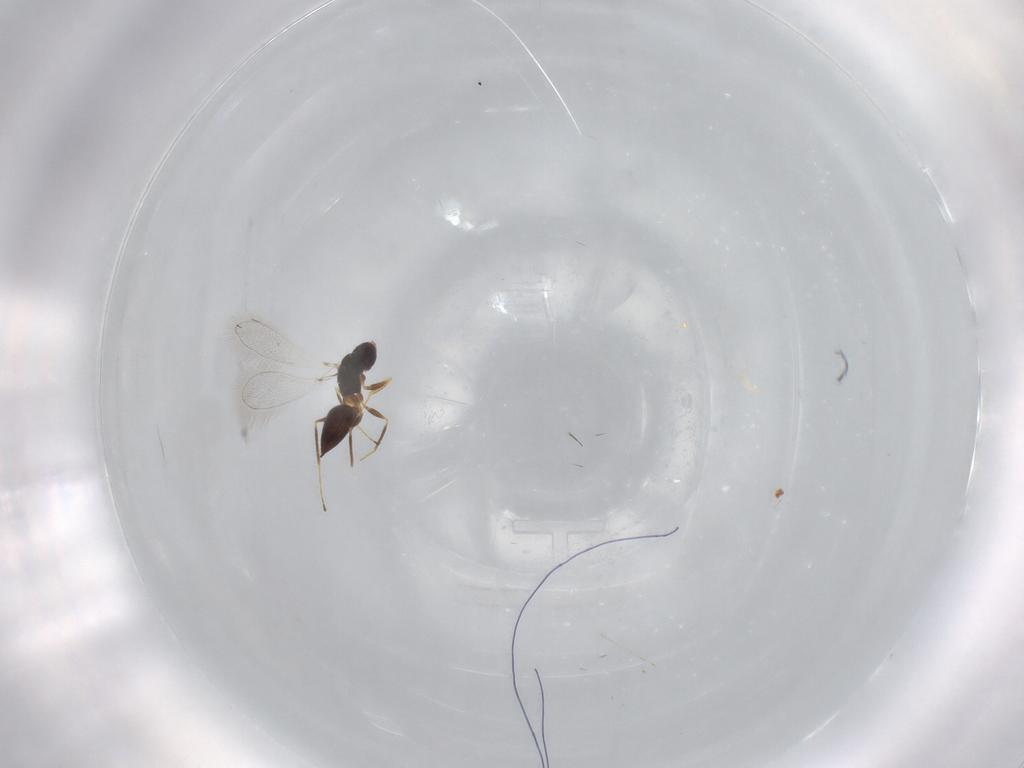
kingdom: Animalia
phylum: Arthropoda
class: Insecta
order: Hymenoptera
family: Mymaridae
